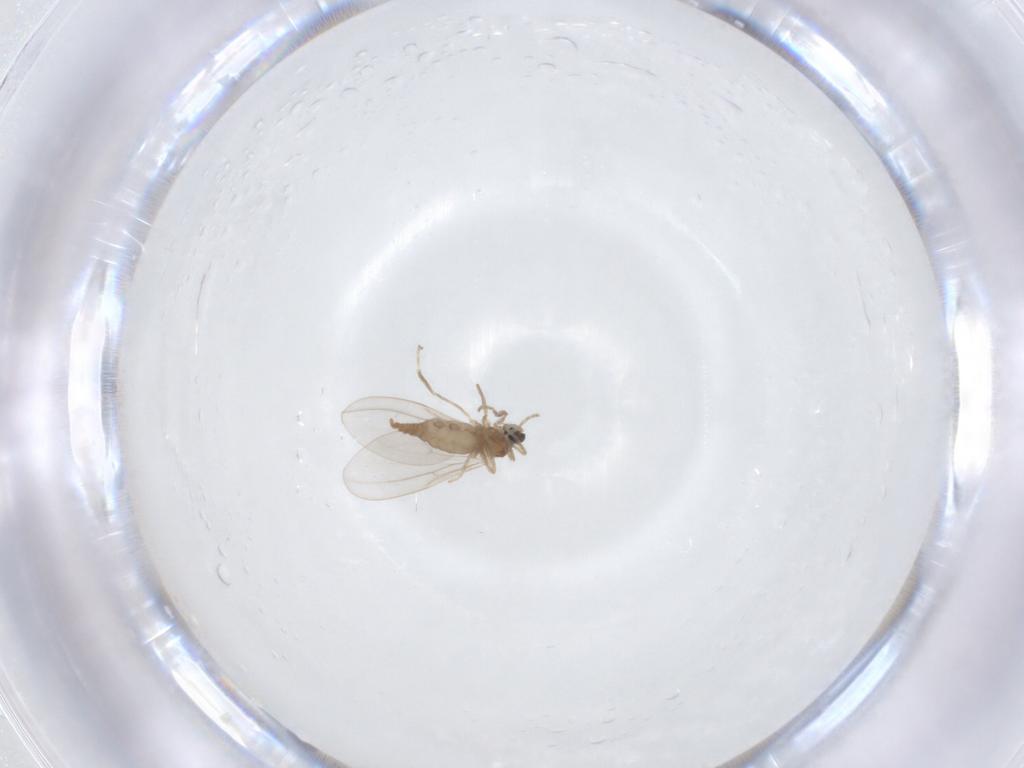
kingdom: Animalia
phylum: Arthropoda
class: Insecta
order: Diptera
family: Cecidomyiidae
